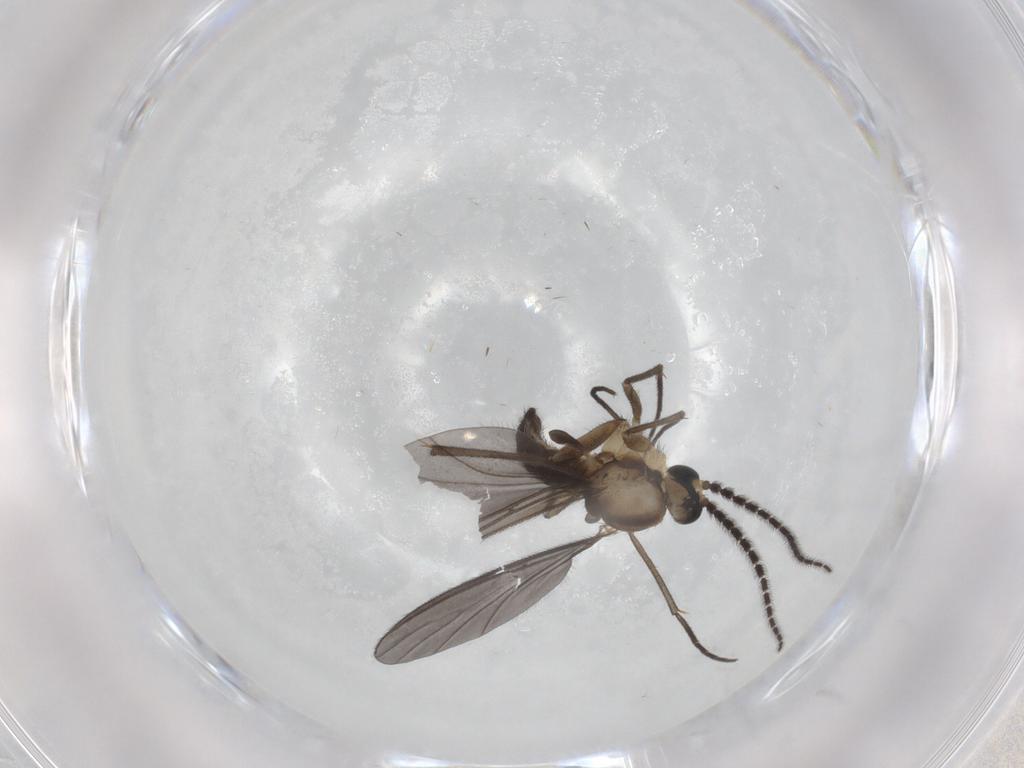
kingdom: Animalia
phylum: Arthropoda
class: Insecta
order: Diptera
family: Sciaridae
